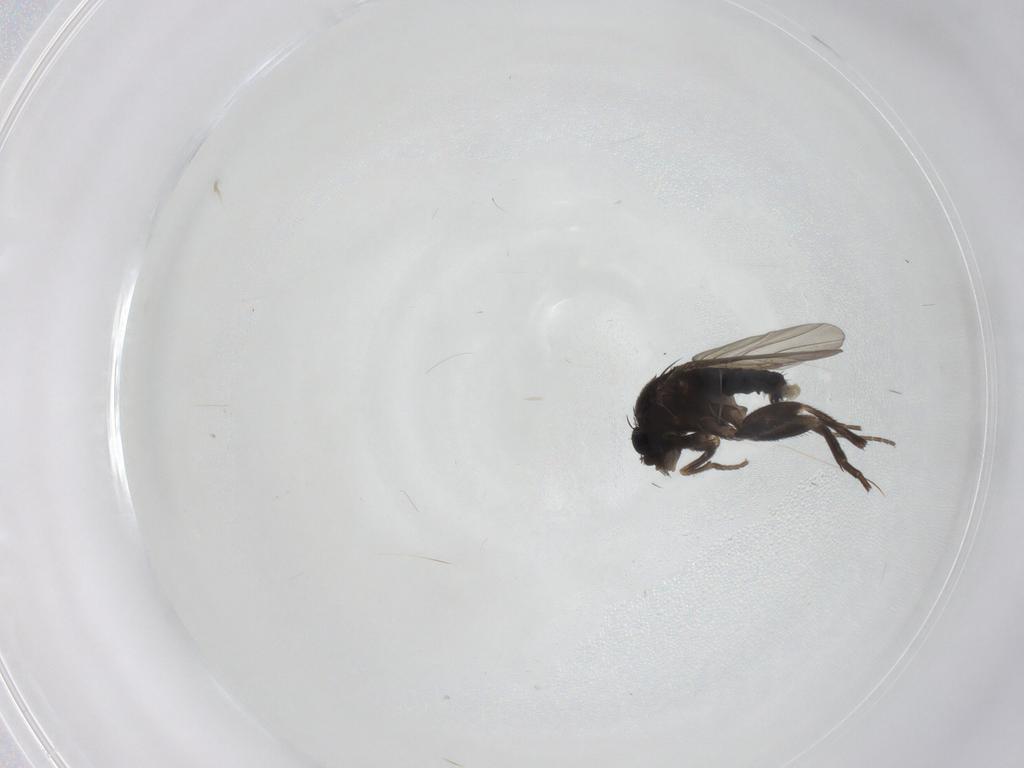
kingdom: Animalia
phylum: Arthropoda
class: Insecta
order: Diptera
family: Phoridae
